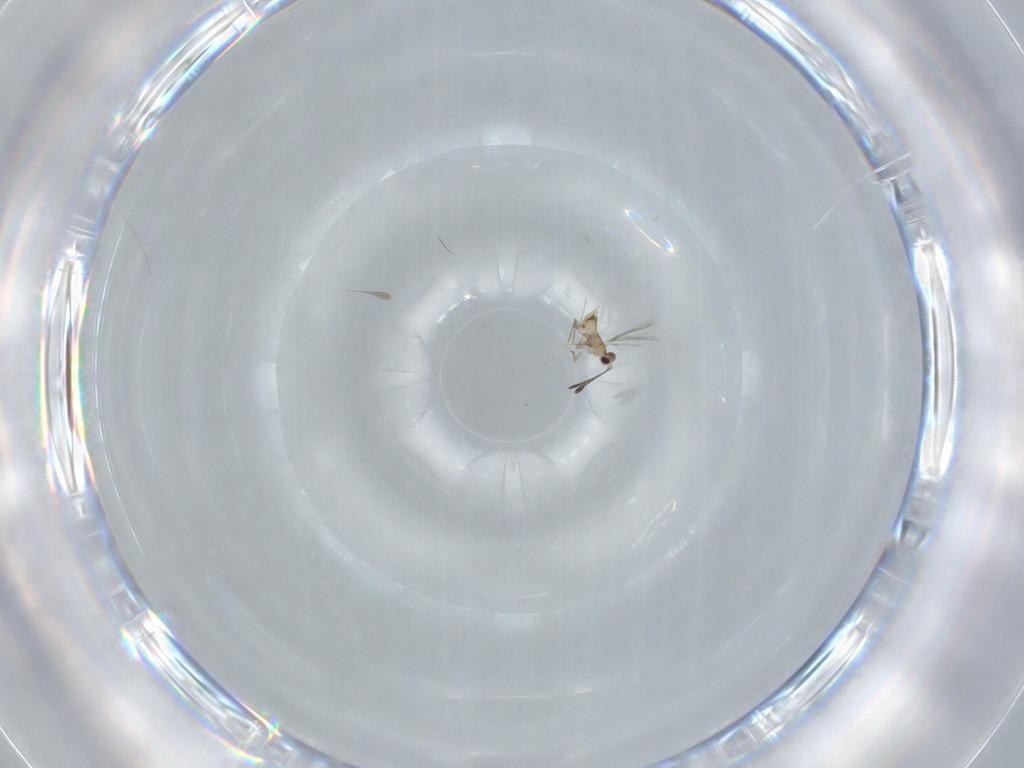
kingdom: Animalia
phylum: Arthropoda
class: Insecta
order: Hymenoptera
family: Mymaridae
